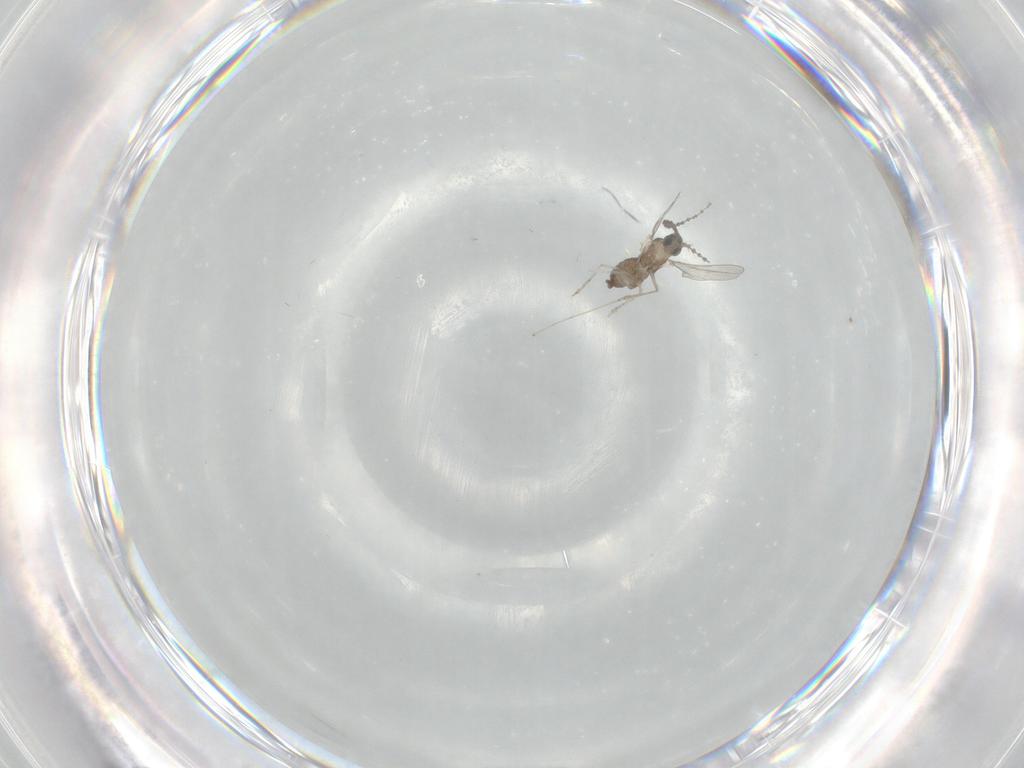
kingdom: Animalia
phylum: Arthropoda
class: Insecta
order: Diptera
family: Cecidomyiidae
